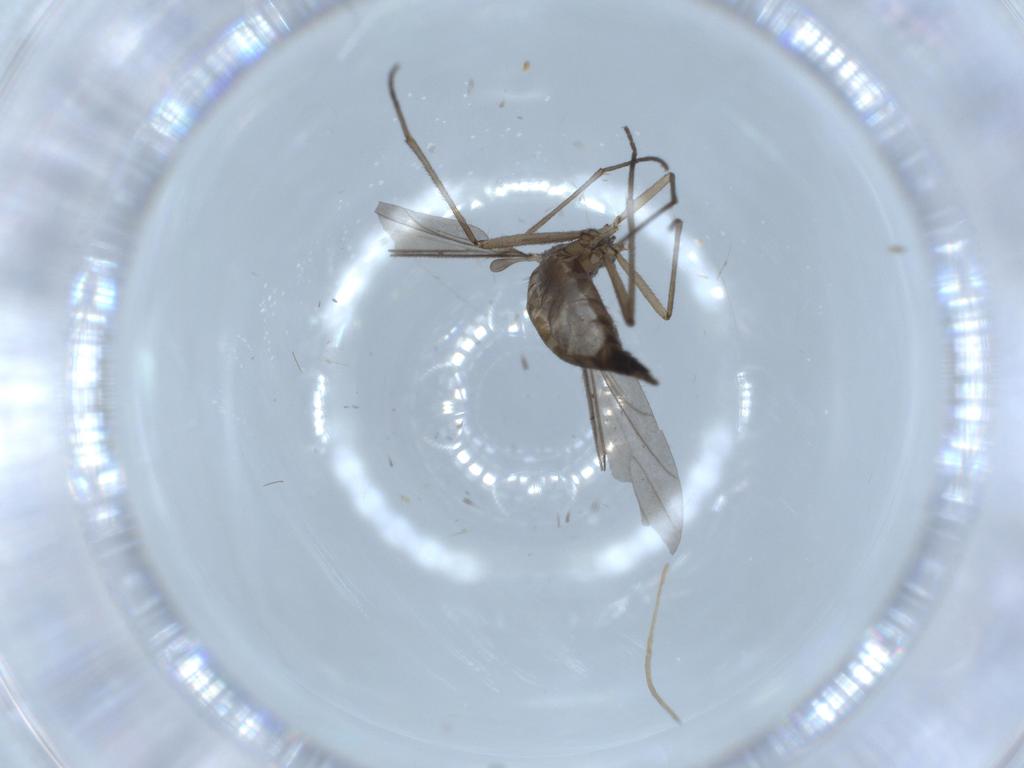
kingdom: Animalia
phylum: Arthropoda
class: Insecta
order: Diptera
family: Sciaridae
